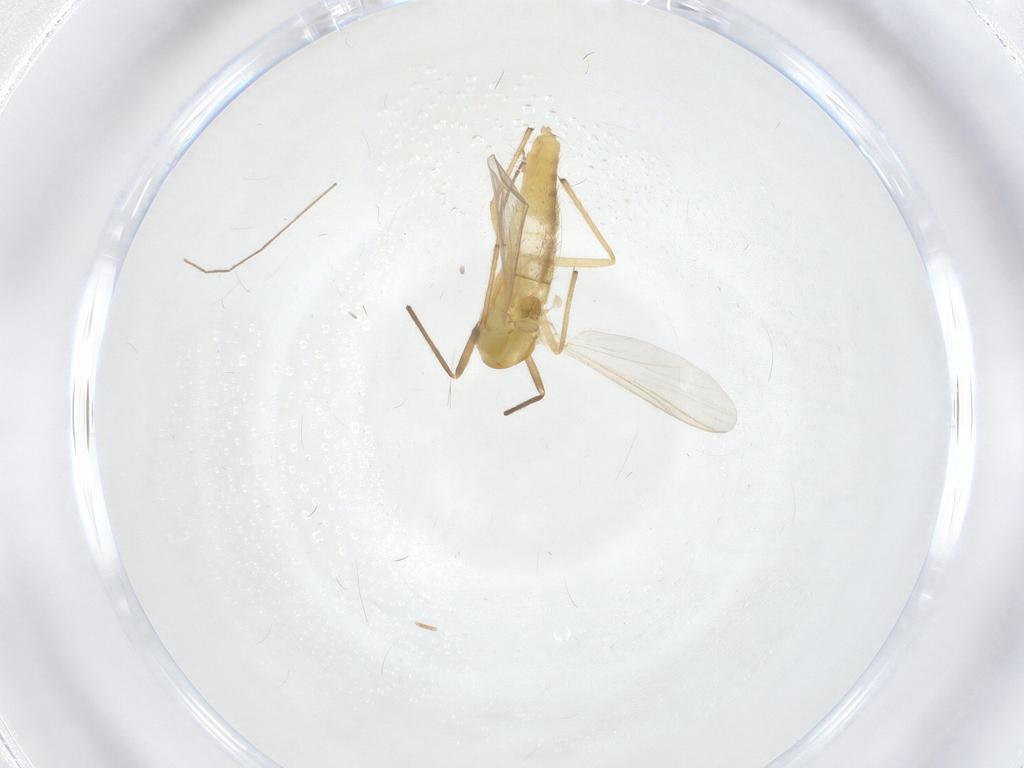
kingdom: Animalia
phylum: Arthropoda
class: Insecta
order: Diptera
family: Chironomidae
